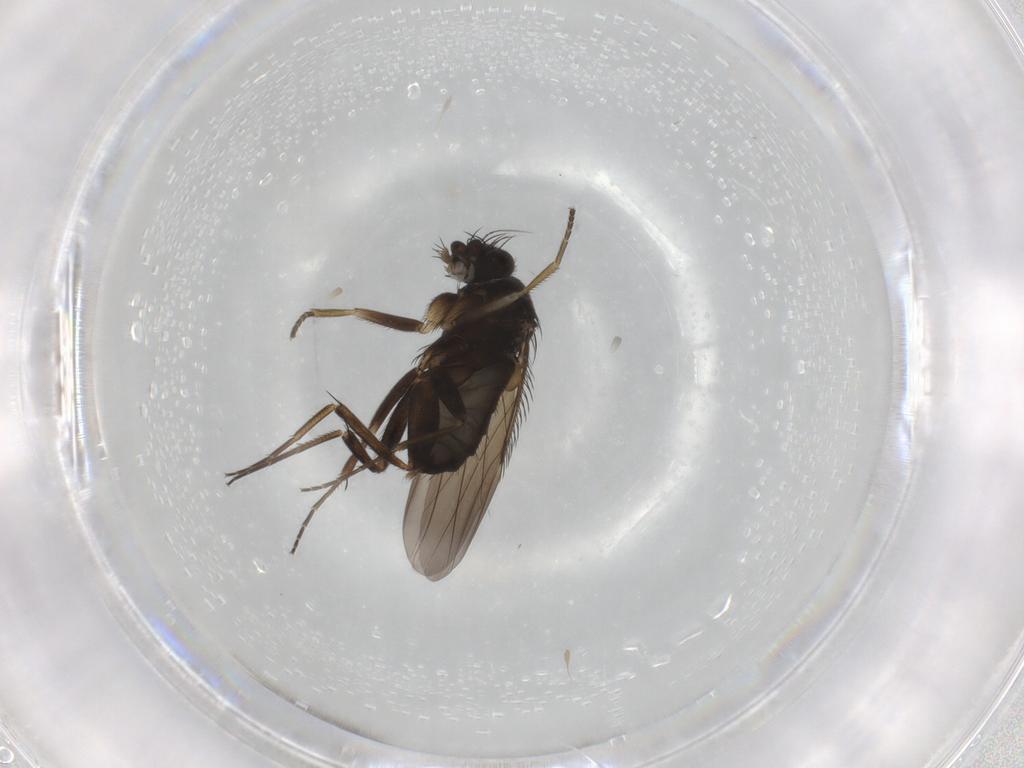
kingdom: Animalia
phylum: Arthropoda
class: Insecta
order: Diptera
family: Phoridae
